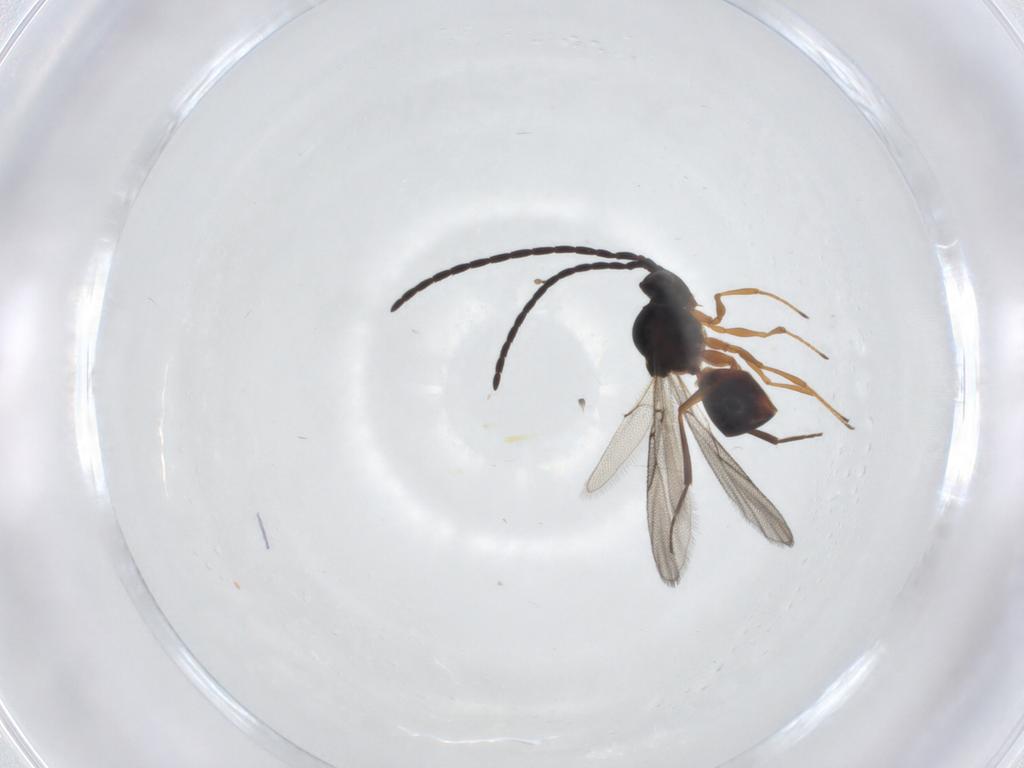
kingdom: Animalia
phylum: Arthropoda
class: Insecta
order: Hymenoptera
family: Figitidae
